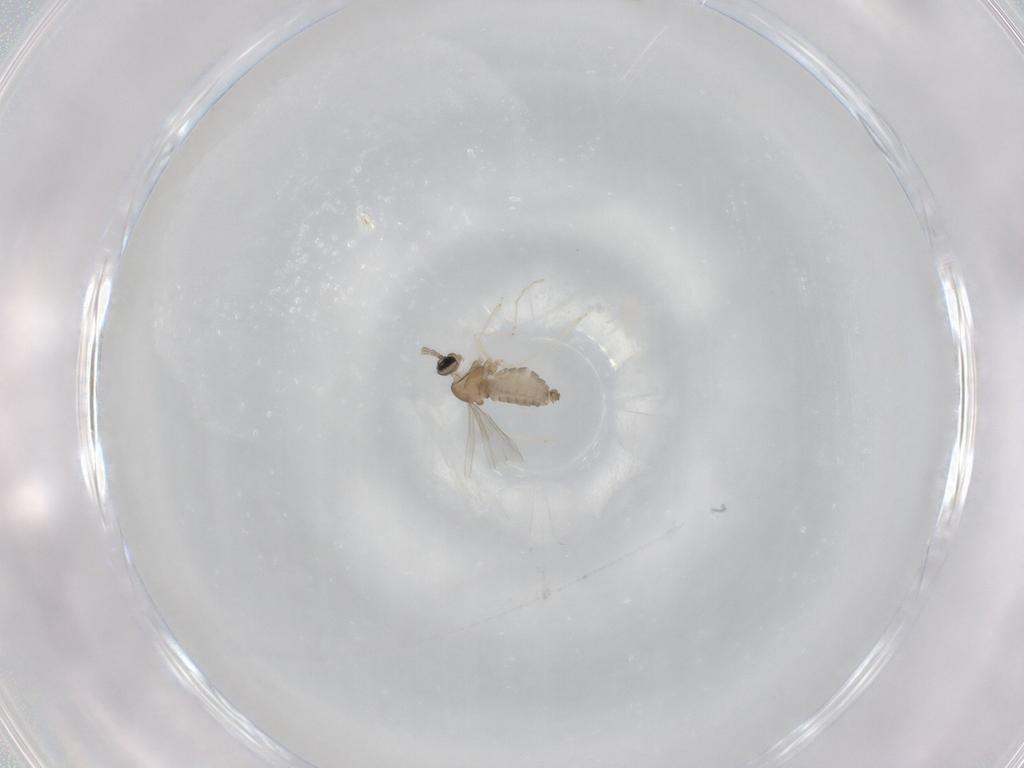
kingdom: Animalia
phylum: Arthropoda
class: Insecta
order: Diptera
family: Cecidomyiidae
